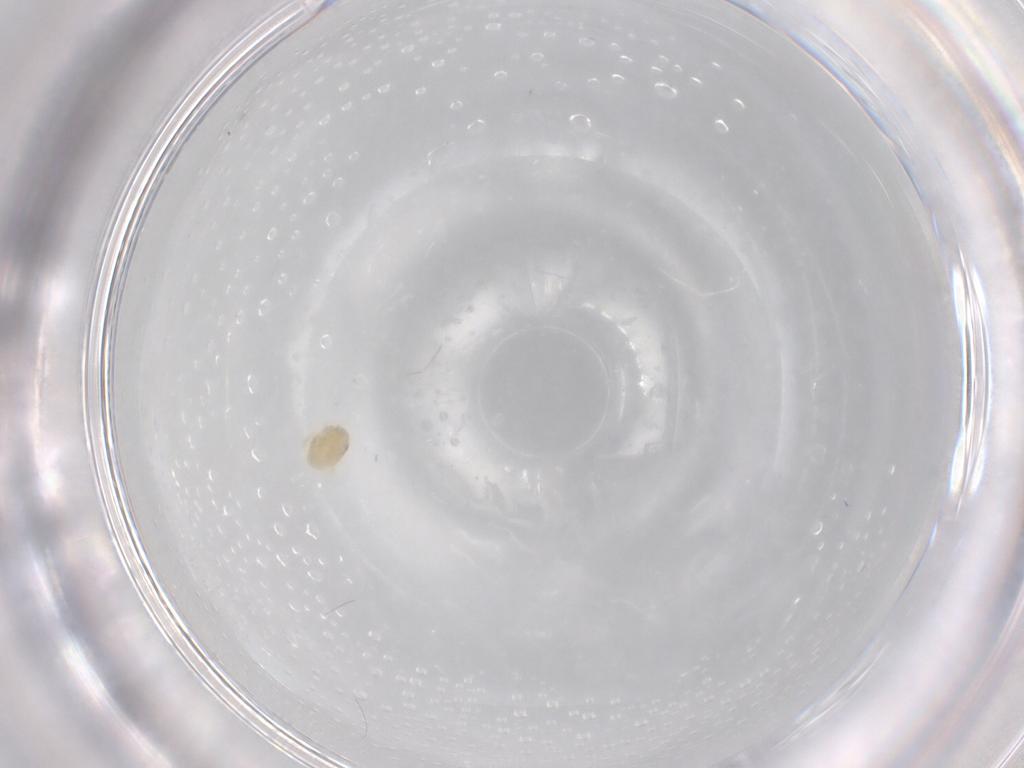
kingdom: Animalia
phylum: Arthropoda
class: Arachnida
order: Trombidiformes
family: Eupodidae
